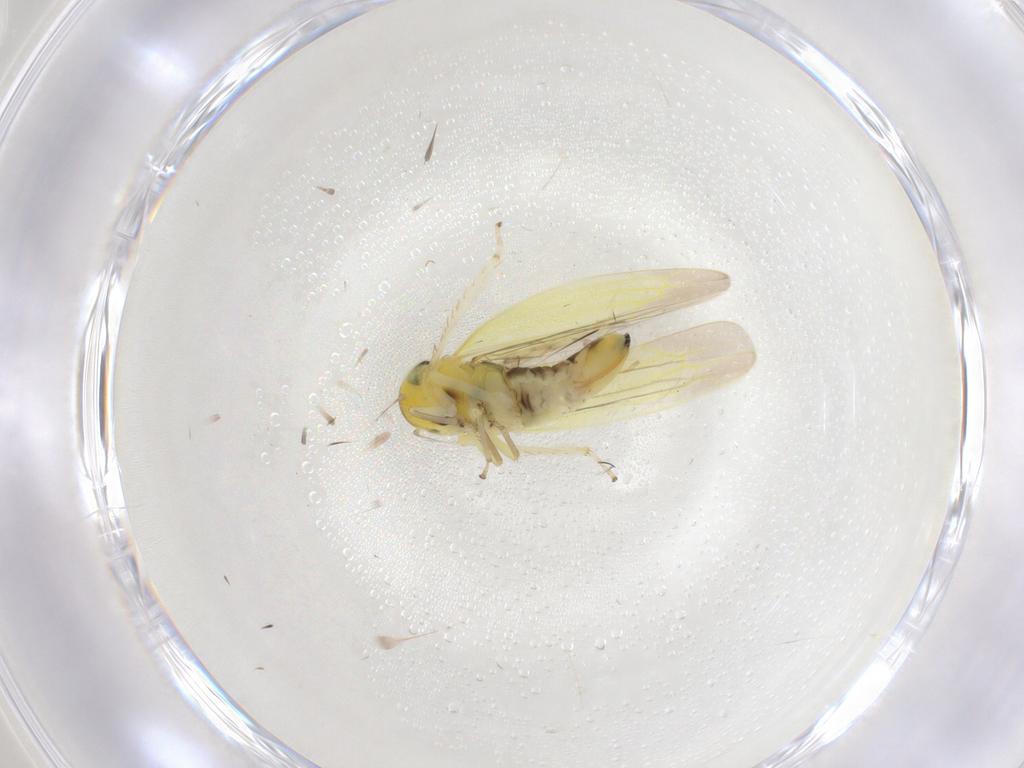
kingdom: Animalia
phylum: Arthropoda
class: Insecta
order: Hemiptera
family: Cicadellidae
